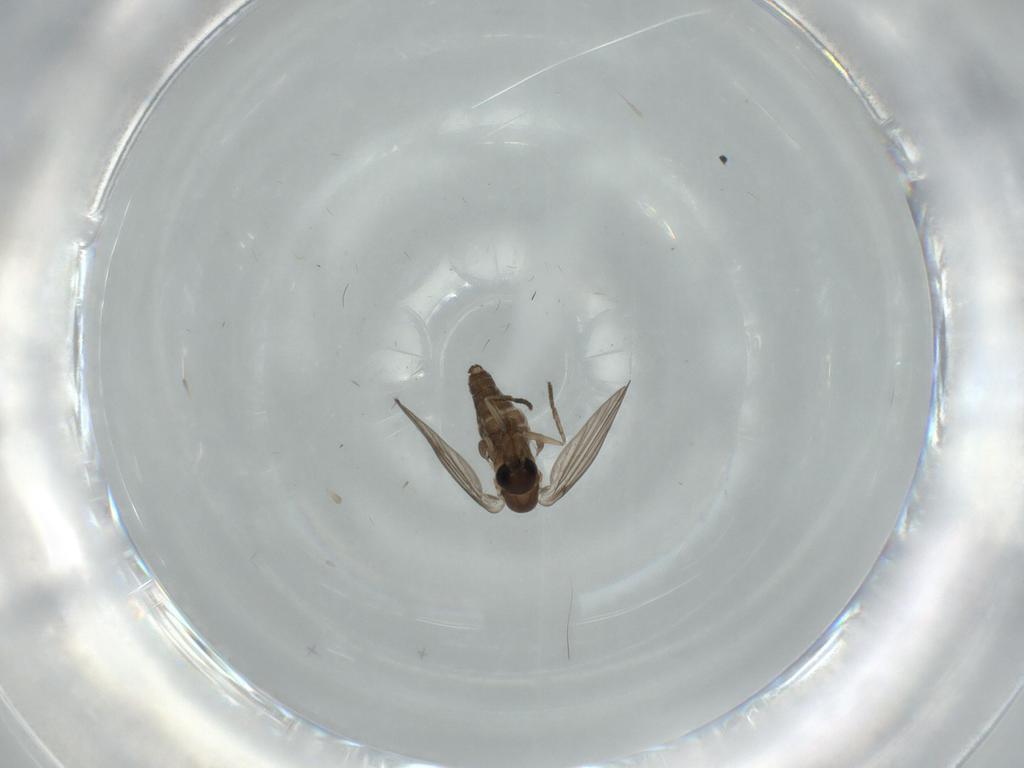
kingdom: Animalia
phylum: Arthropoda
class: Insecta
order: Diptera
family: Psychodidae
